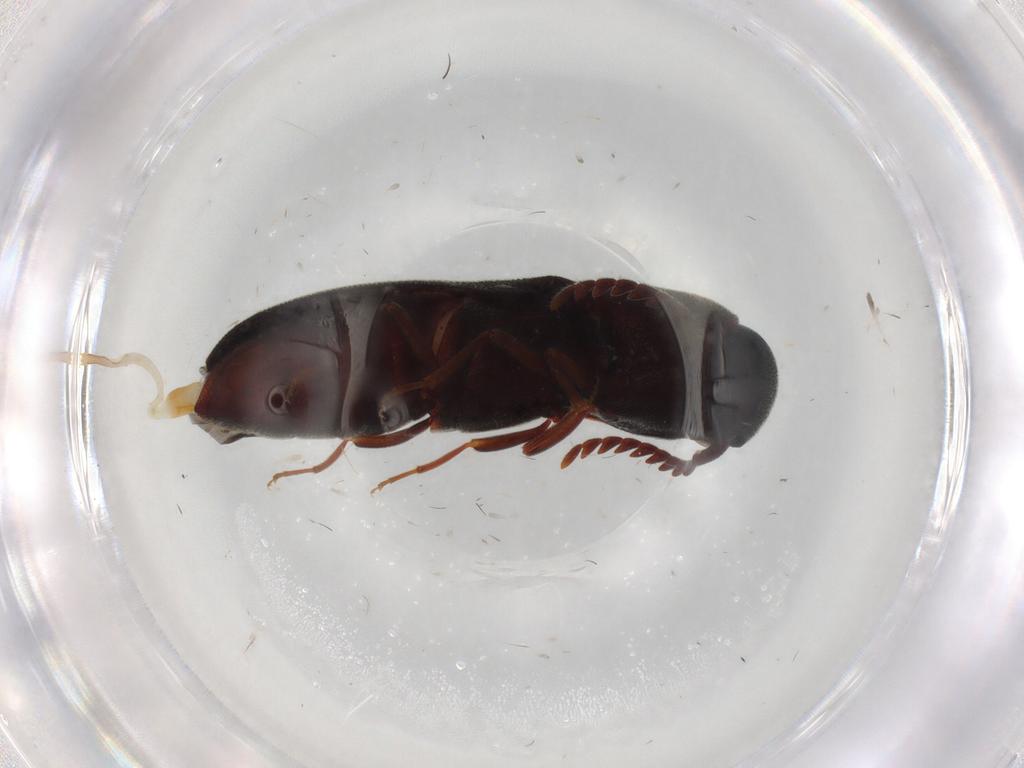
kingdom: Animalia
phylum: Arthropoda
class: Insecta
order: Coleoptera
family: Eucnemidae
